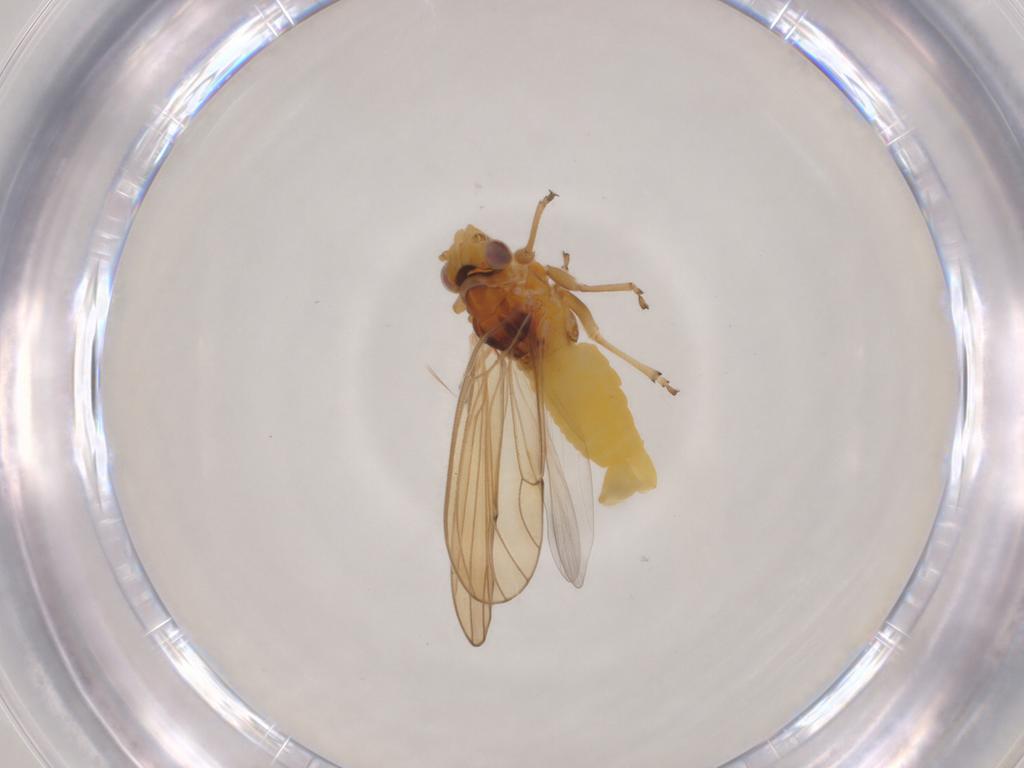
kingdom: Animalia
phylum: Arthropoda
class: Insecta
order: Hemiptera
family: Psylloidea_incertae_sedis
